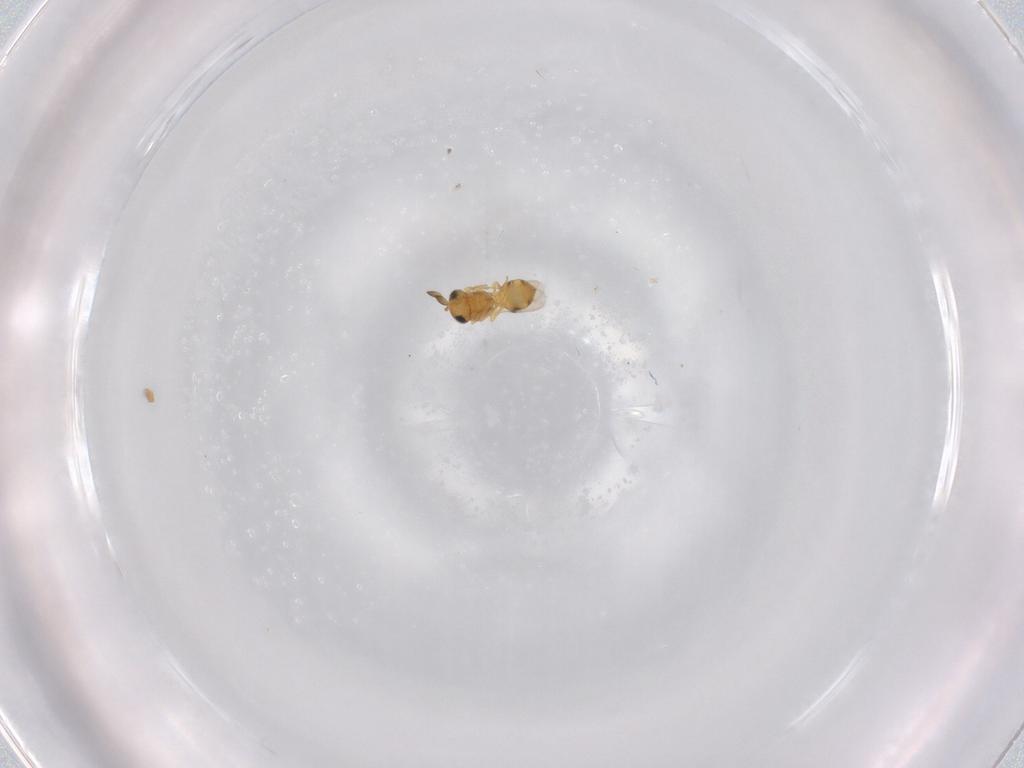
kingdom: Animalia
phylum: Arthropoda
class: Insecta
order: Hymenoptera
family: Scelionidae
